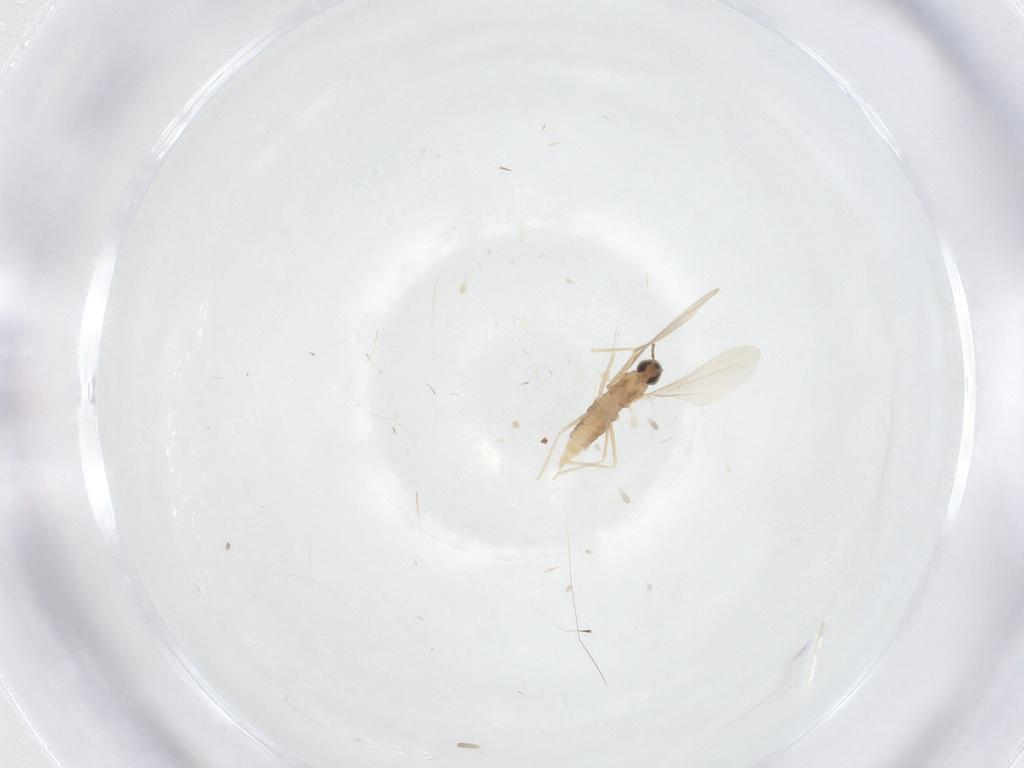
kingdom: Animalia
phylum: Arthropoda
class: Insecta
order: Diptera
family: Cecidomyiidae
